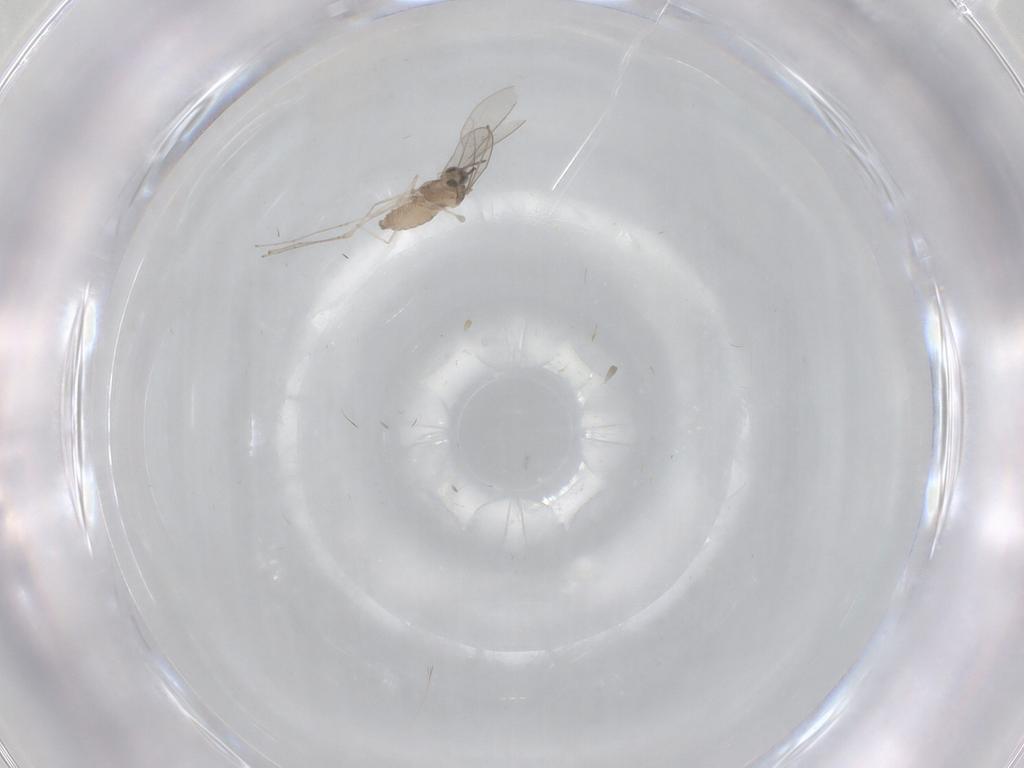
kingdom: Animalia
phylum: Arthropoda
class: Insecta
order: Diptera
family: Cecidomyiidae
